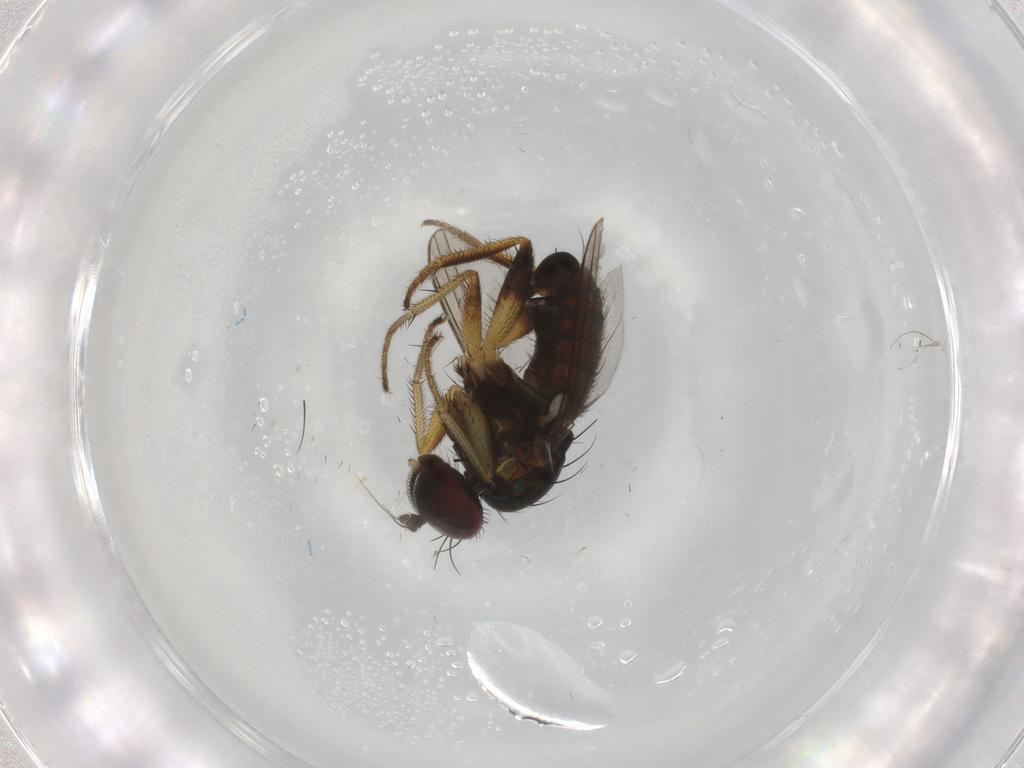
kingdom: Animalia
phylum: Arthropoda
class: Insecta
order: Diptera
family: Dolichopodidae
